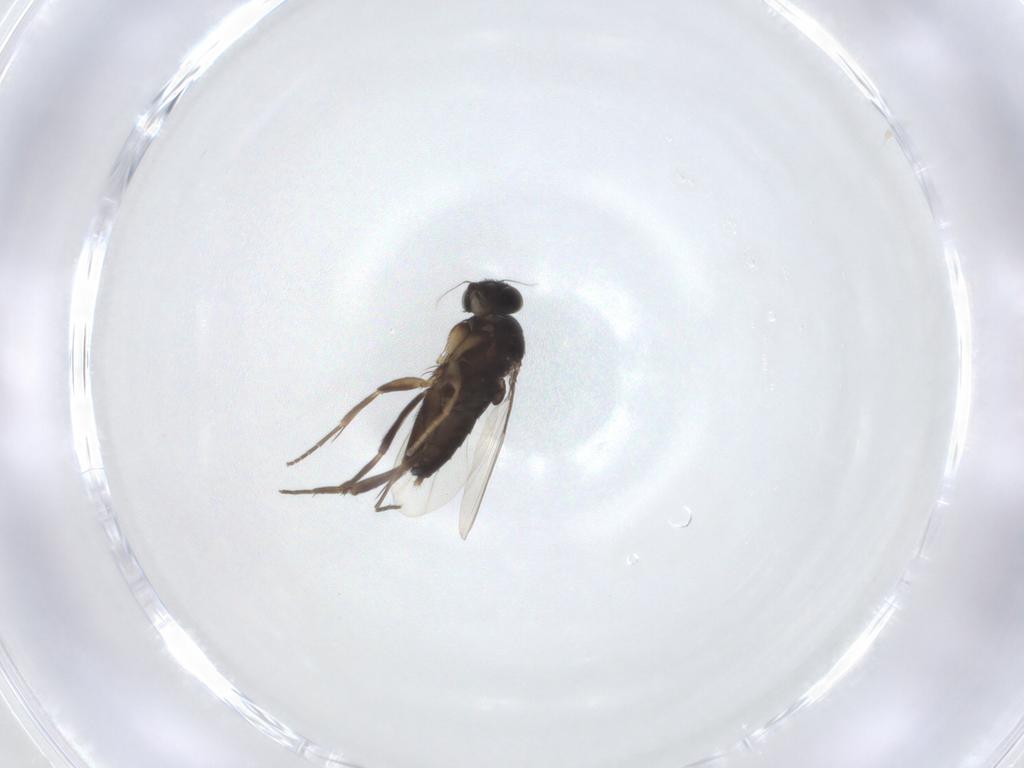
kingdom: Animalia
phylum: Arthropoda
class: Insecta
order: Diptera
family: Phoridae
